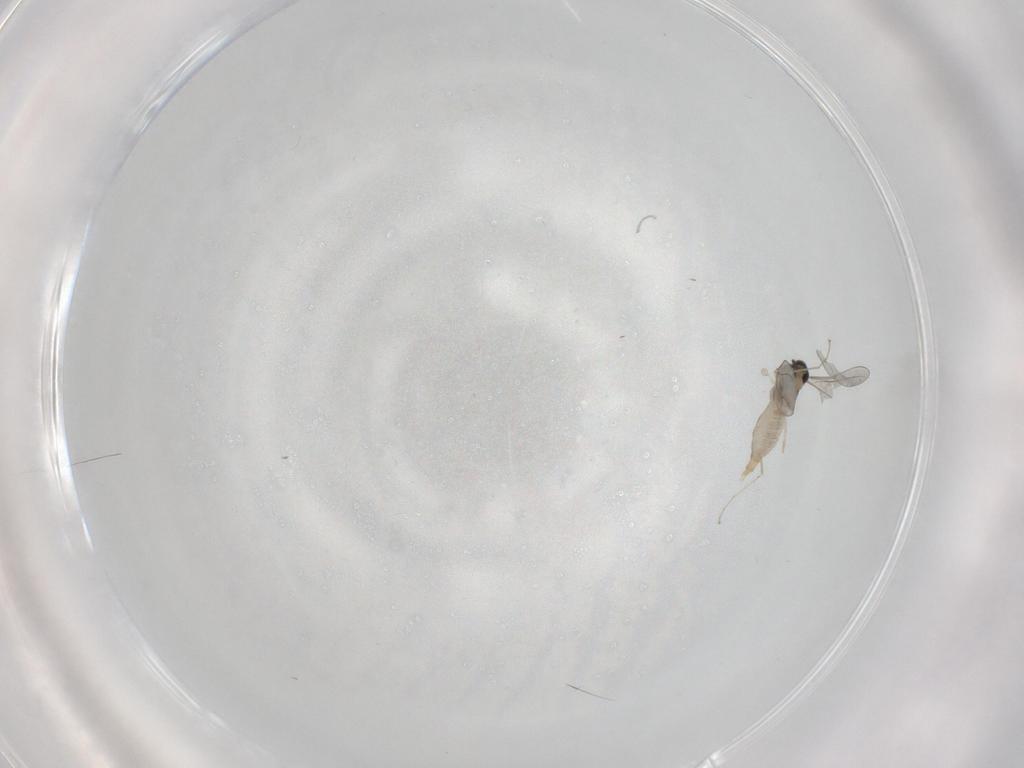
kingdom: Animalia
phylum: Arthropoda
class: Insecta
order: Diptera
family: Cecidomyiidae
